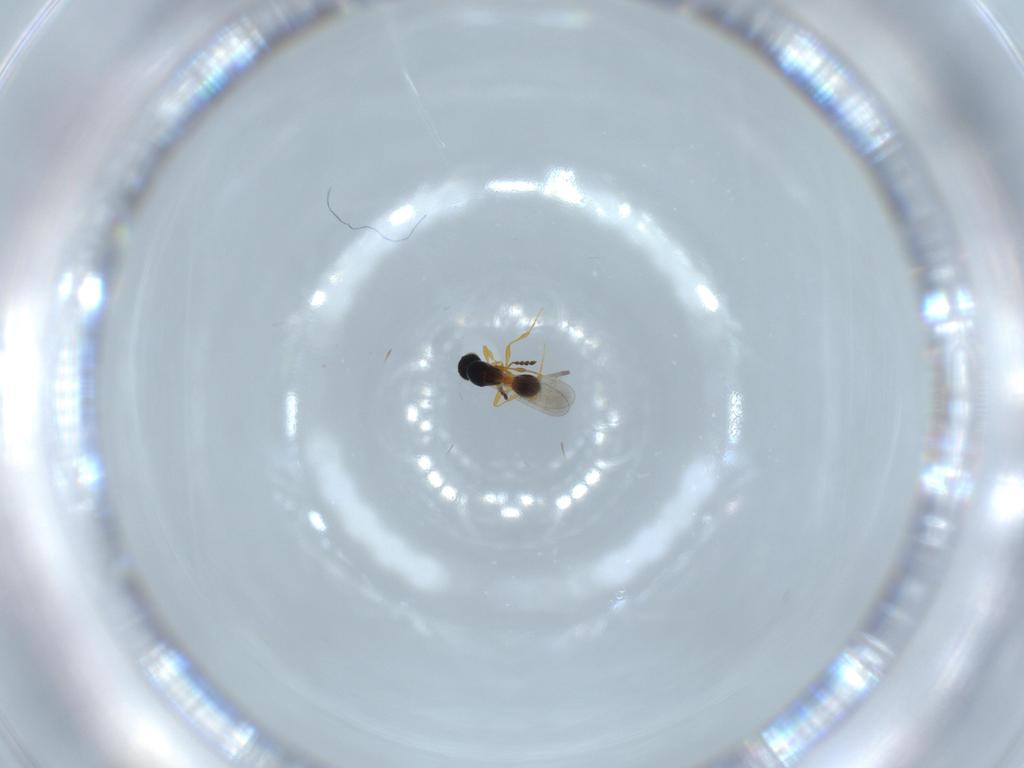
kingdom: Animalia
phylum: Arthropoda
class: Insecta
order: Hymenoptera
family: Platygastridae
